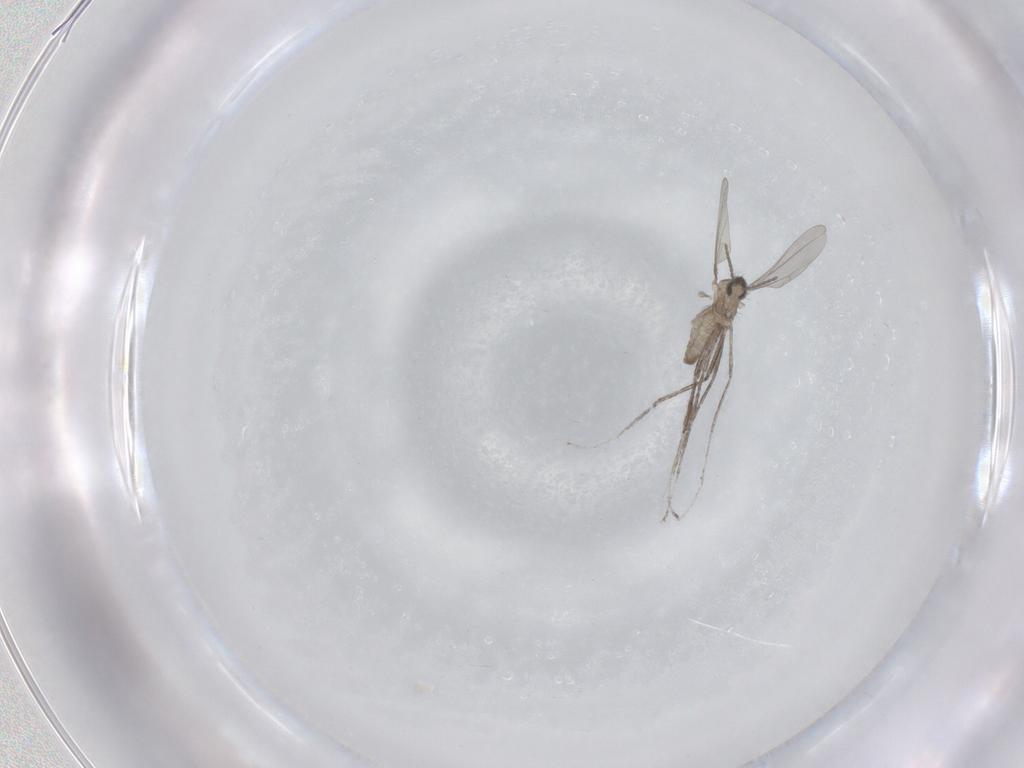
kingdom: Animalia
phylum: Arthropoda
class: Insecta
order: Diptera
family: Cecidomyiidae
